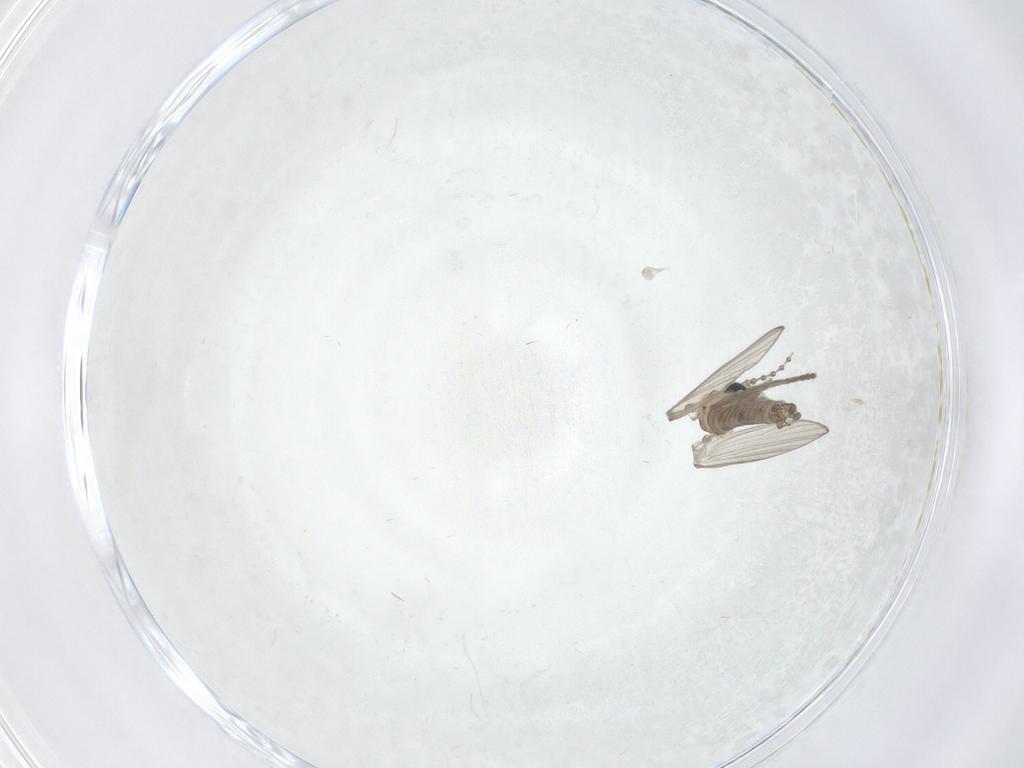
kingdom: Animalia
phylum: Arthropoda
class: Insecta
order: Diptera
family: Psychodidae
